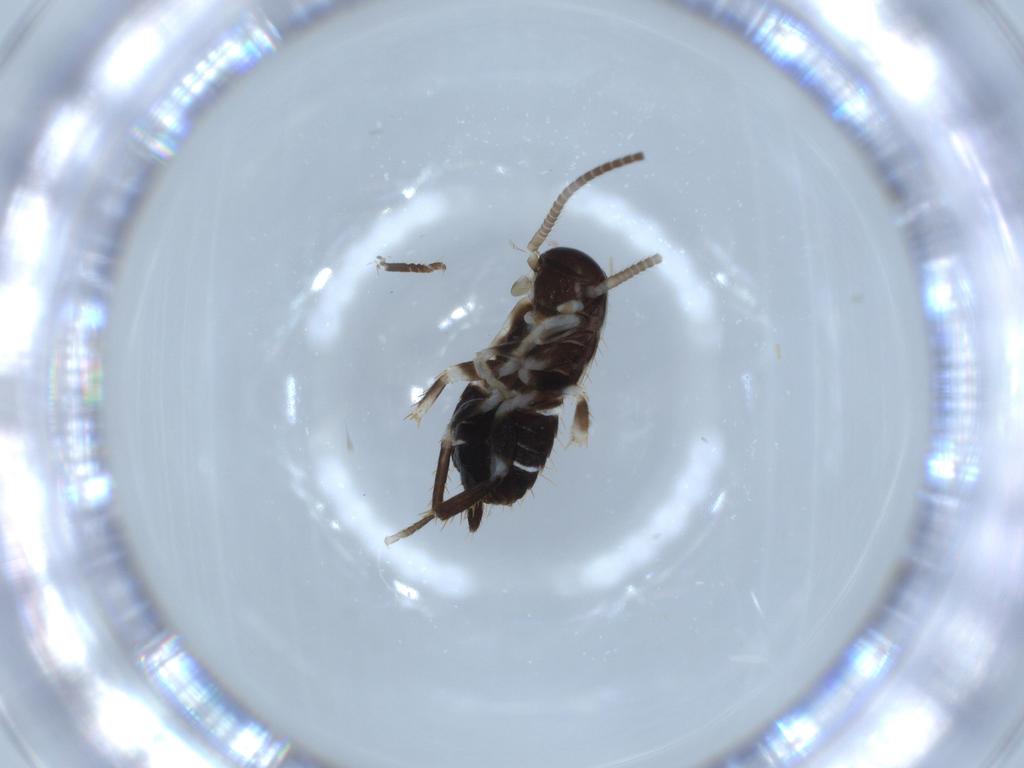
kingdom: Animalia
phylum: Arthropoda
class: Insecta
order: Blattodea
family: Ectobiidae
